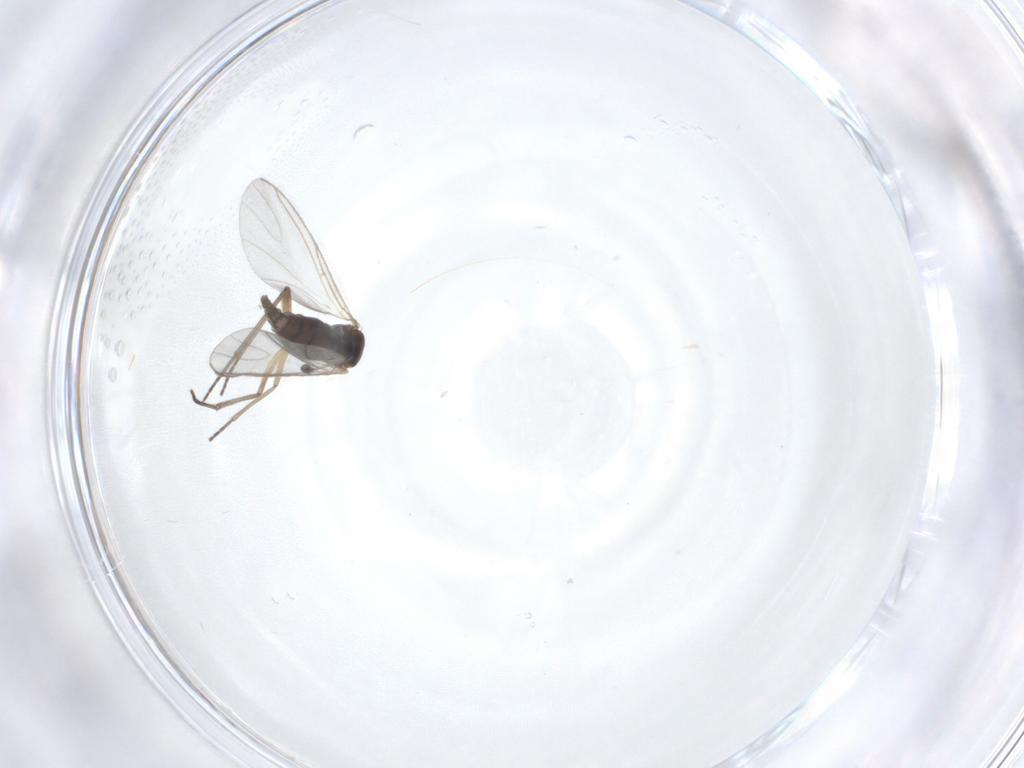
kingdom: Animalia
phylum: Arthropoda
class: Insecta
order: Diptera
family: Sciaridae
